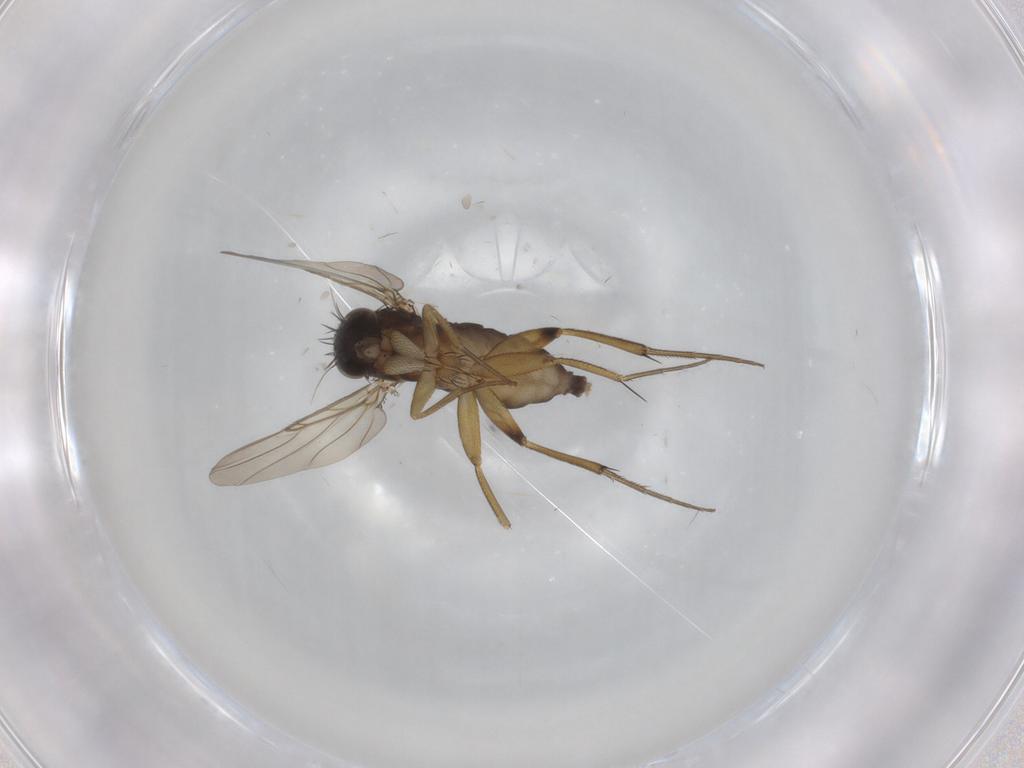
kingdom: Animalia
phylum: Arthropoda
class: Insecta
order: Diptera
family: Phoridae
